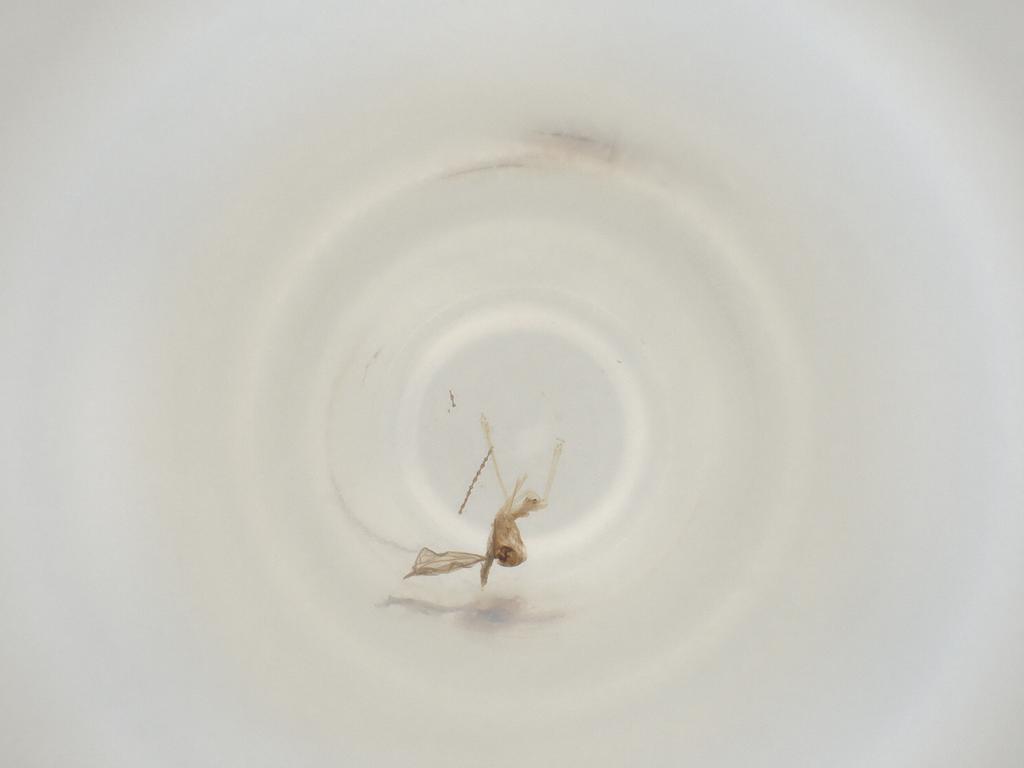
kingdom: Animalia
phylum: Arthropoda
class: Insecta
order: Diptera
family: Cecidomyiidae
